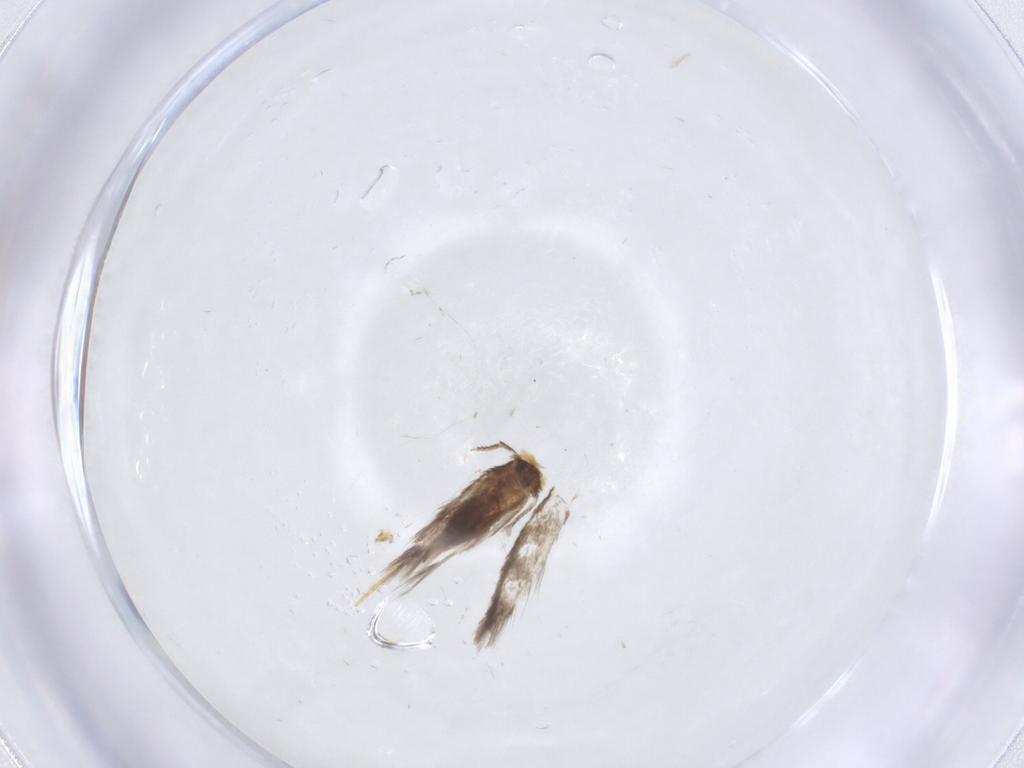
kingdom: Animalia
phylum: Arthropoda
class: Insecta
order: Lepidoptera
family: Nepticulidae
